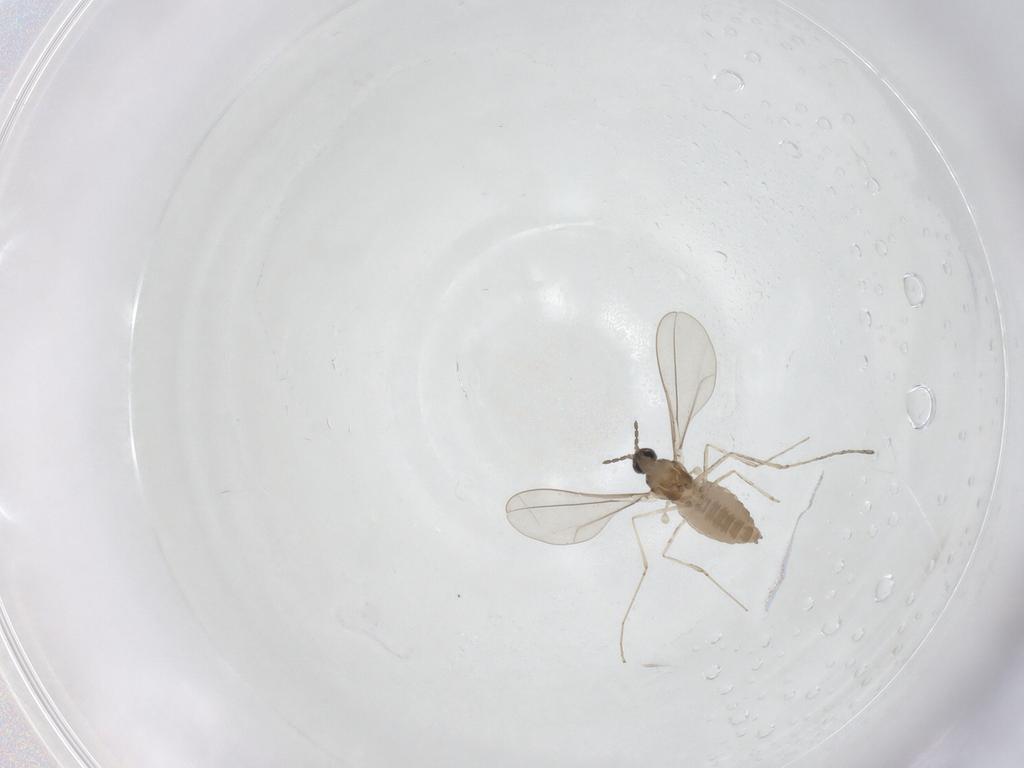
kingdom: Animalia
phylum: Arthropoda
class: Insecta
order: Diptera
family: Cecidomyiidae
